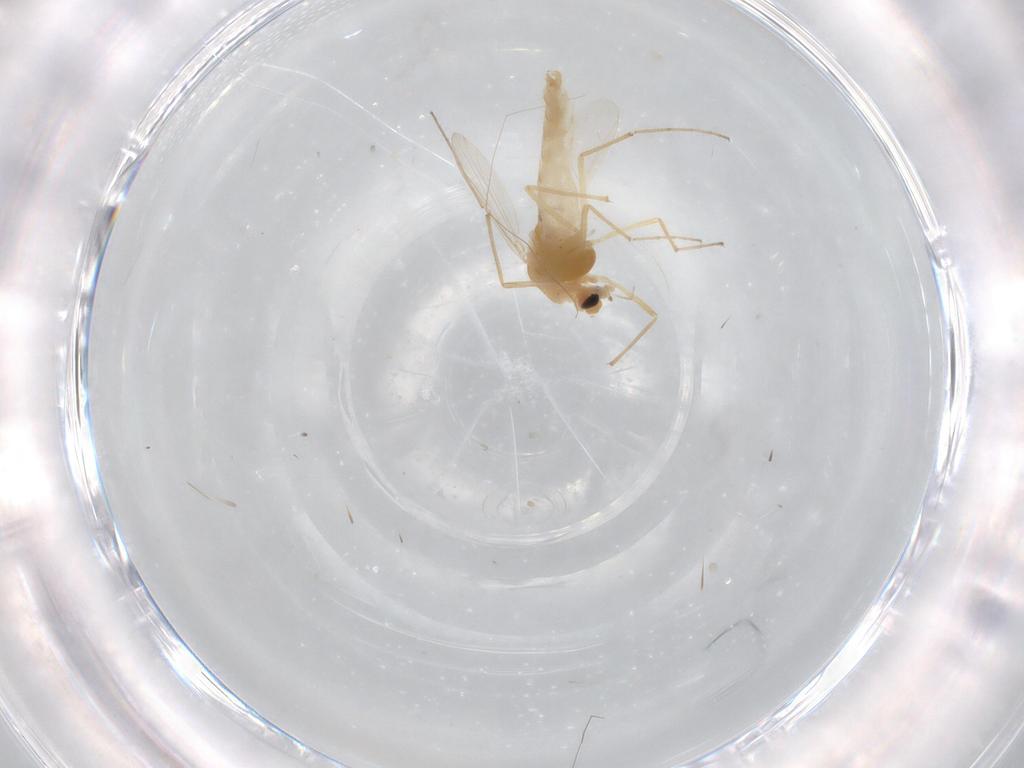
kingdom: Animalia
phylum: Arthropoda
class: Insecta
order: Diptera
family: Chironomidae
